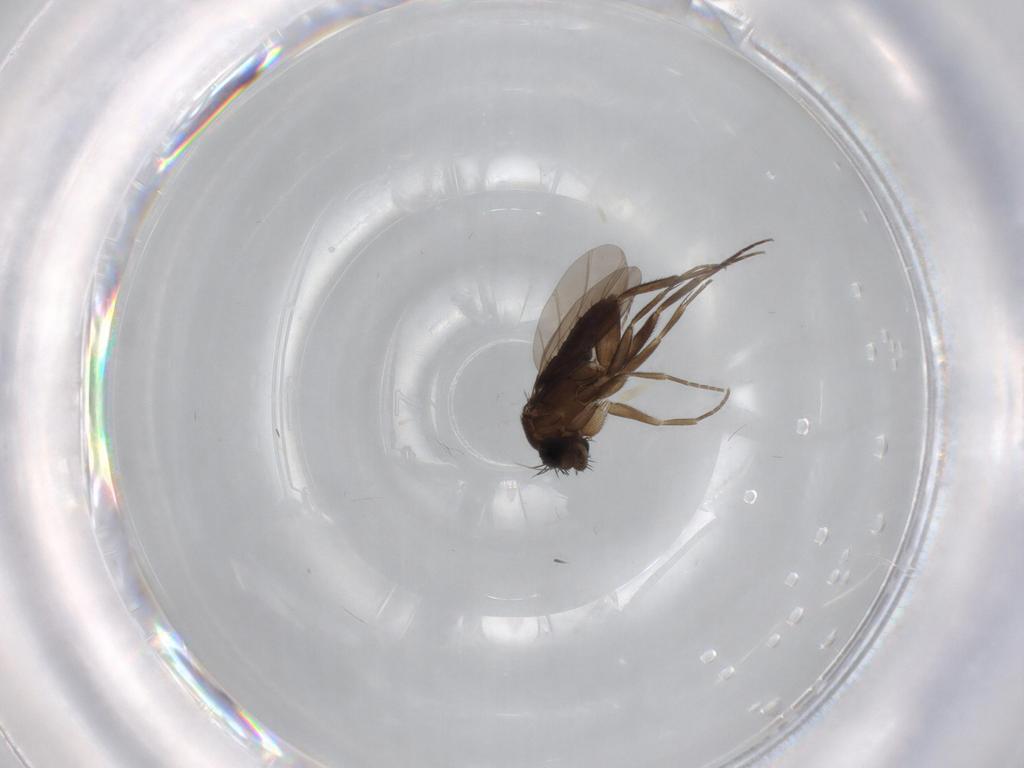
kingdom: Animalia
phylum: Arthropoda
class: Insecta
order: Diptera
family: Phoridae
